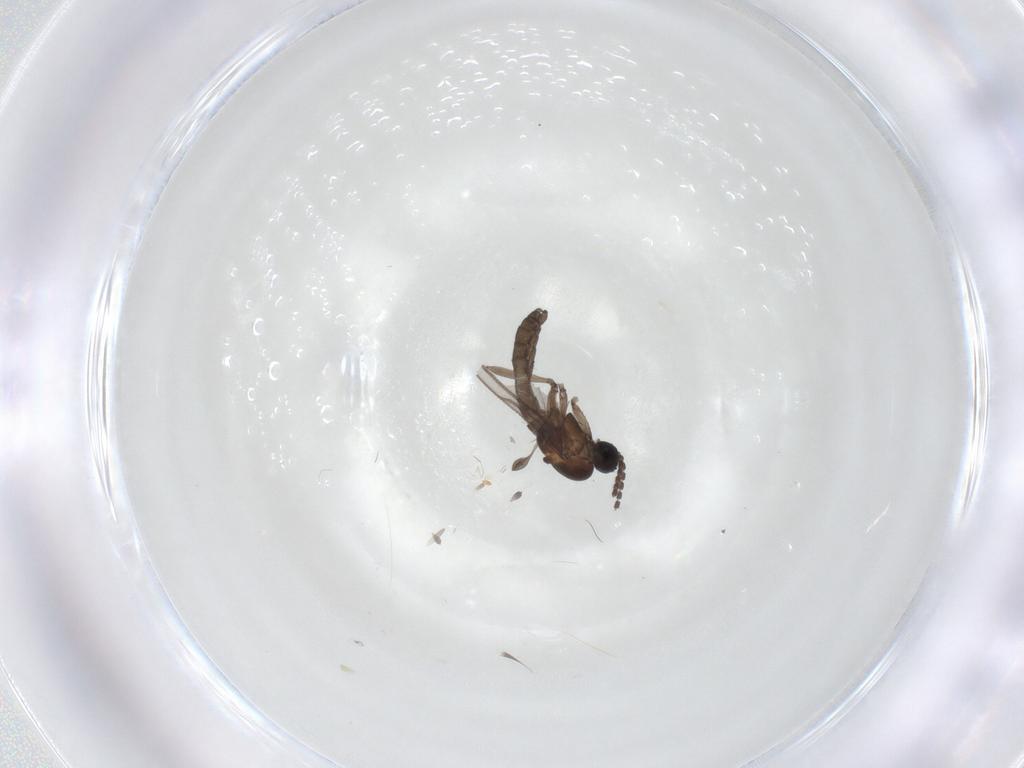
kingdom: Animalia
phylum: Arthropoda
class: Insecta
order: Diptera
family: Sciaridae
